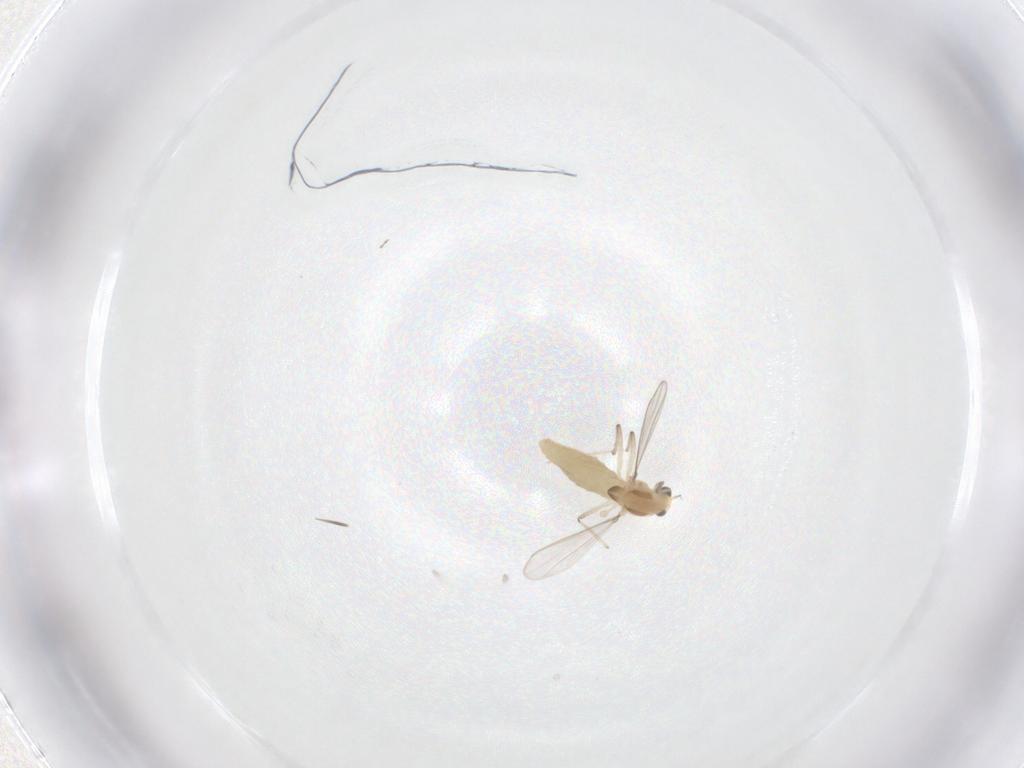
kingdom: Animalia
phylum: Arthropoda
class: Insecta
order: Diptera
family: Chironomidae
